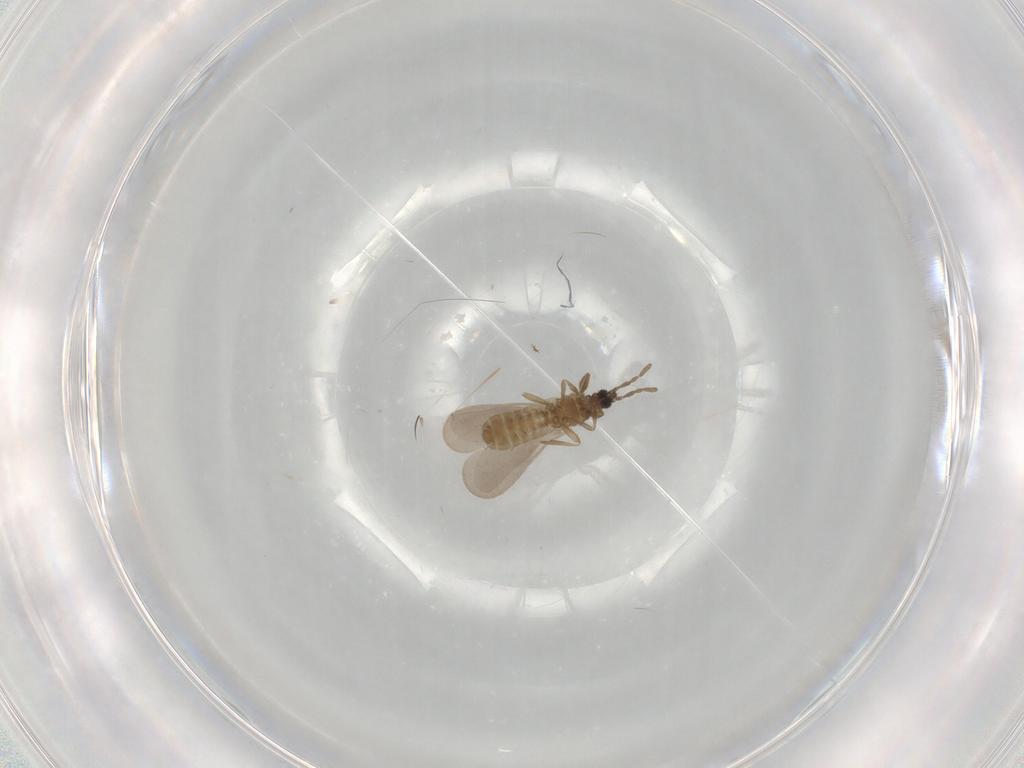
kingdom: Animalia
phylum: Arthropoda
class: Insecta
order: Hemiptera
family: Enicocephalidae
